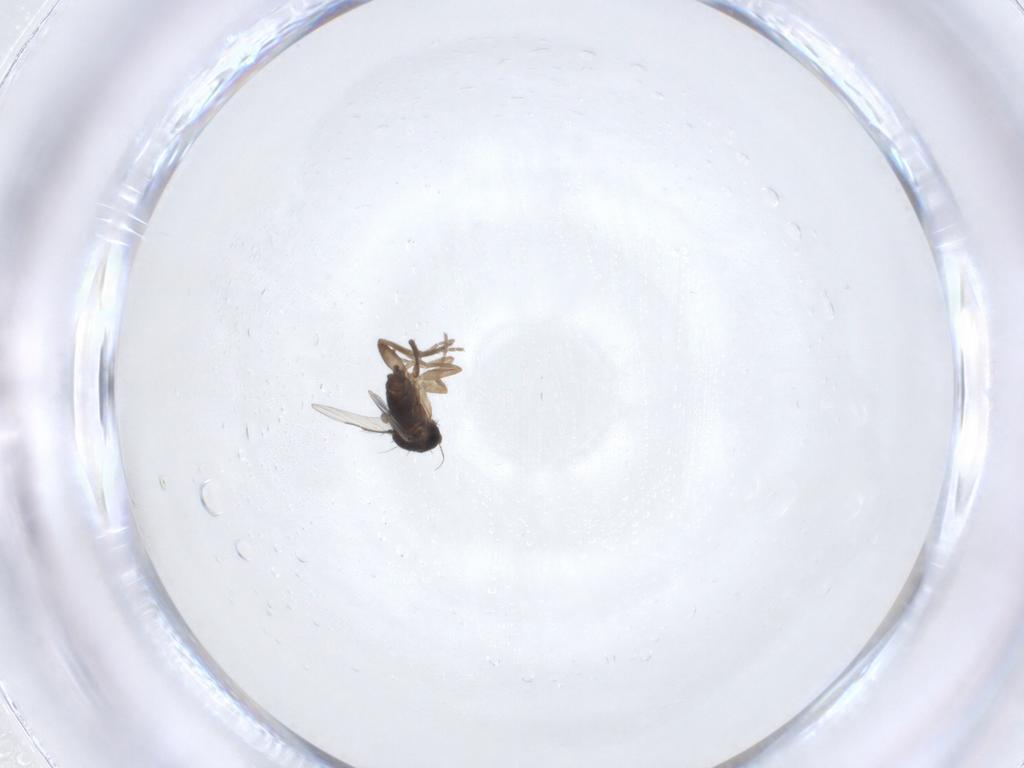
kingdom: Animalia
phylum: Arthropoda
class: Insecta
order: Diptera
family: Phoridae
